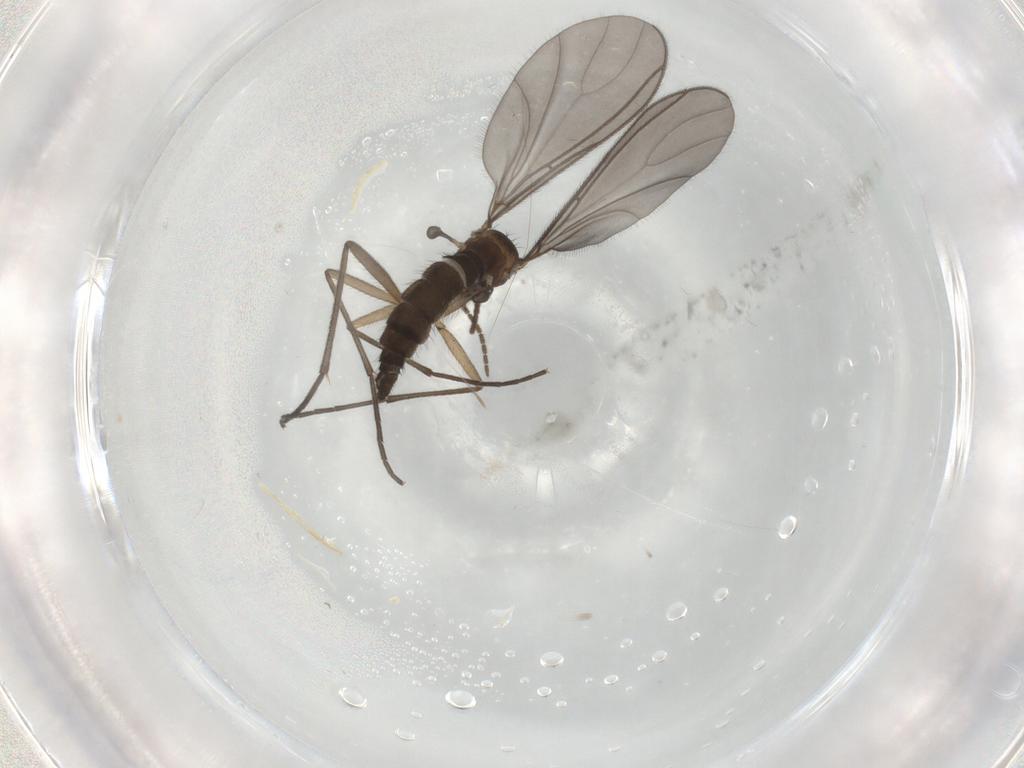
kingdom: Animalia
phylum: Arthropoda
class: Insecta
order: Diptera
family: Sciaridae
